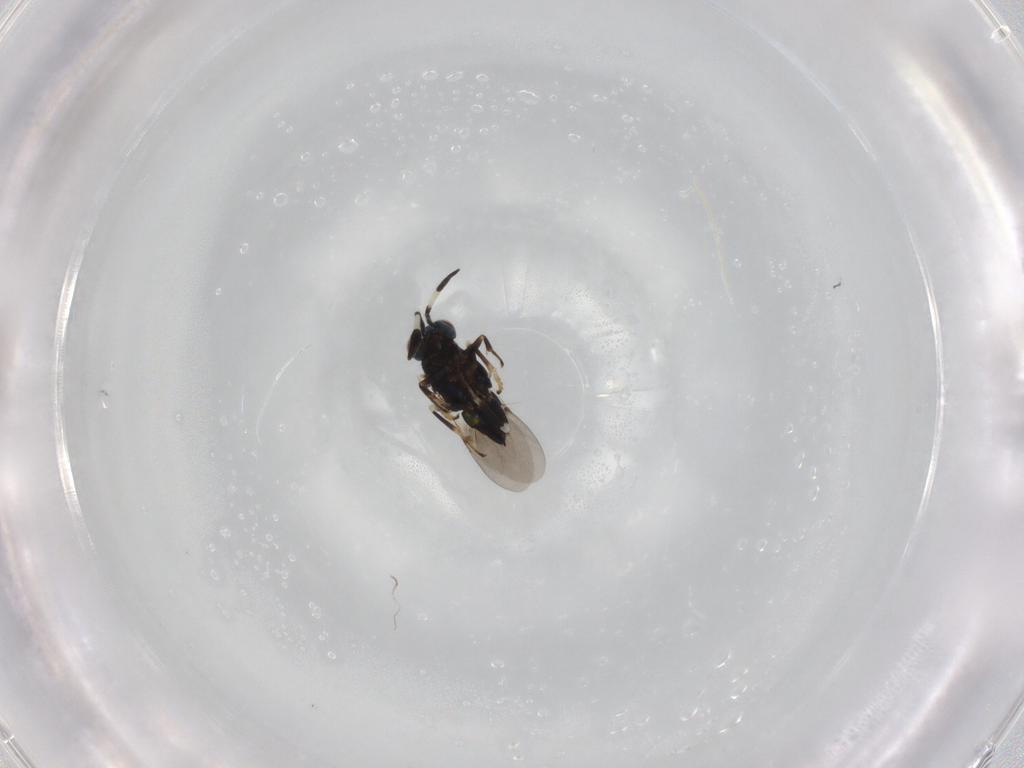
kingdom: Animalia
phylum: Arthropoda
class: Insecta
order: Hymenoptera
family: Encyrtidae
